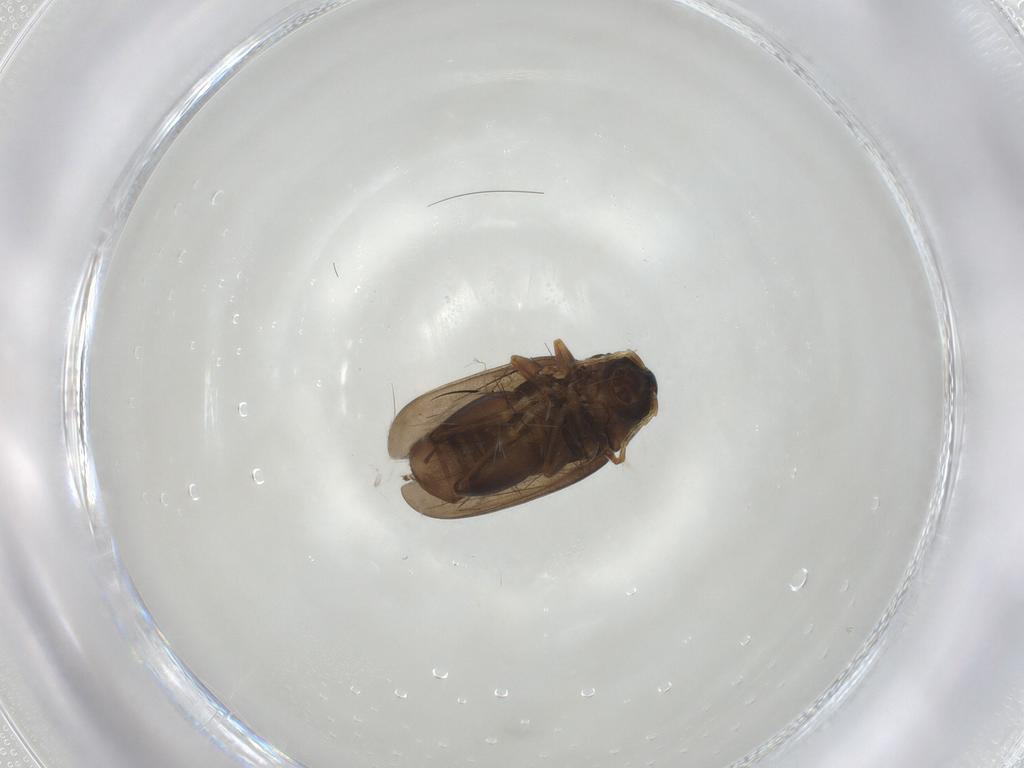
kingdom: Animalia
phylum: Arthropoda
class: Insecta
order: Coleoptera
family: Chrysomelidae
